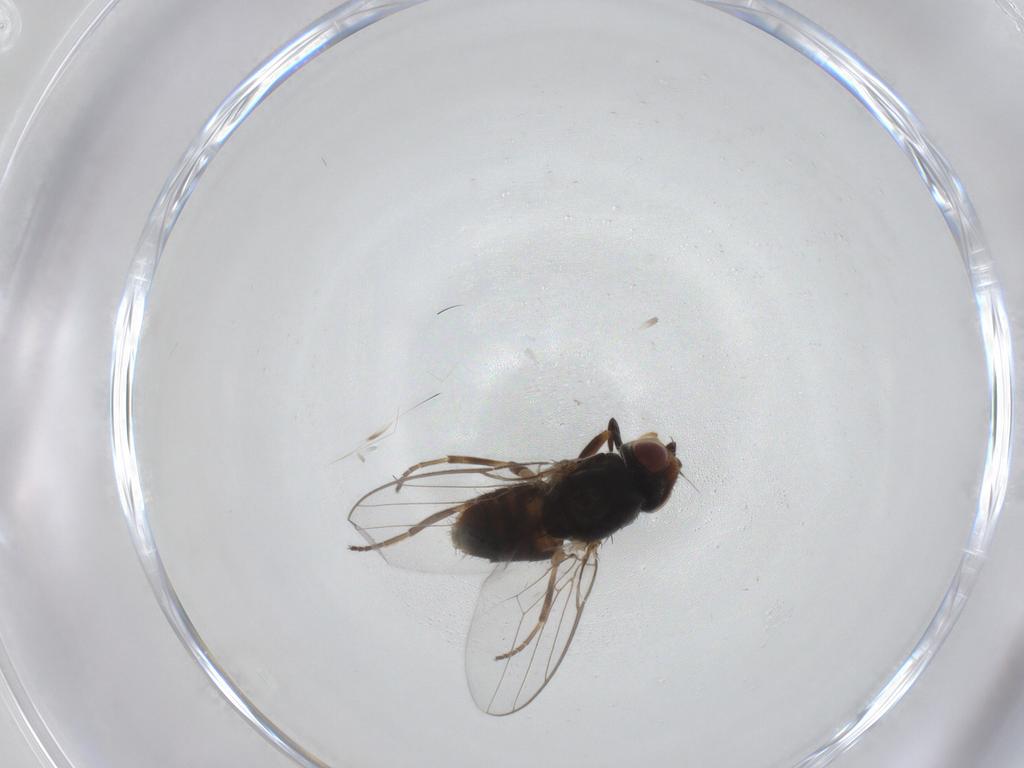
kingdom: Animalia
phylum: Arthropoda
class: Insecta
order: Diptera
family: Chloropidae
